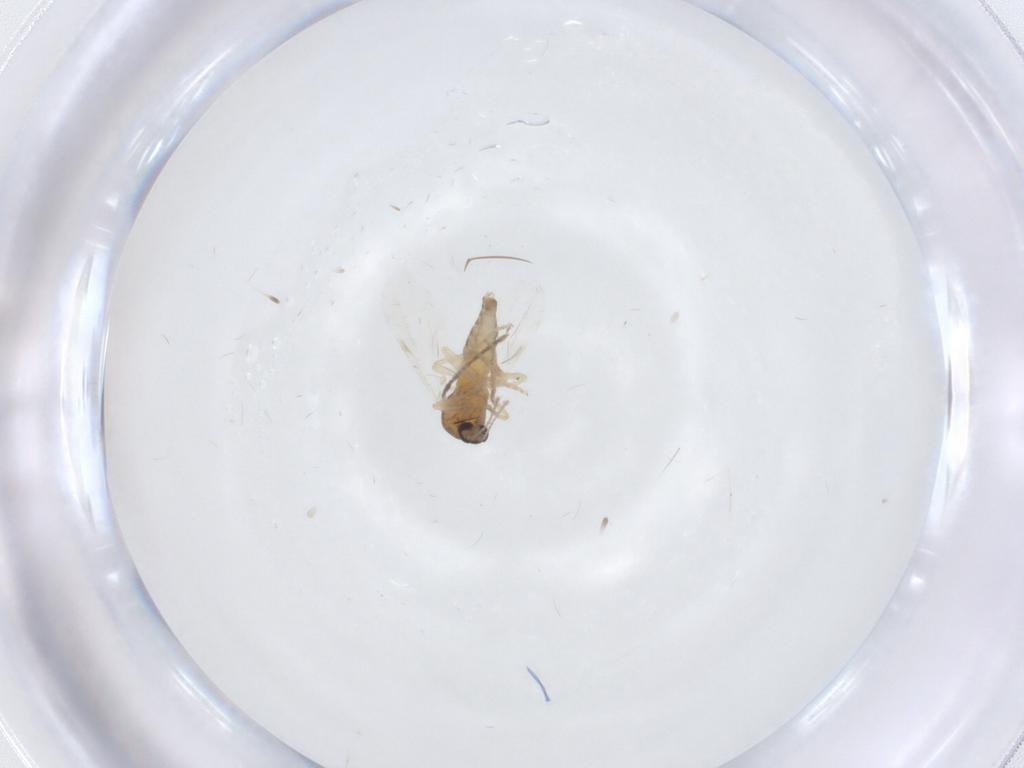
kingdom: Animalia
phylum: Arthropoda
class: Insecta
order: Diptera
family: Ceratopogonidae
